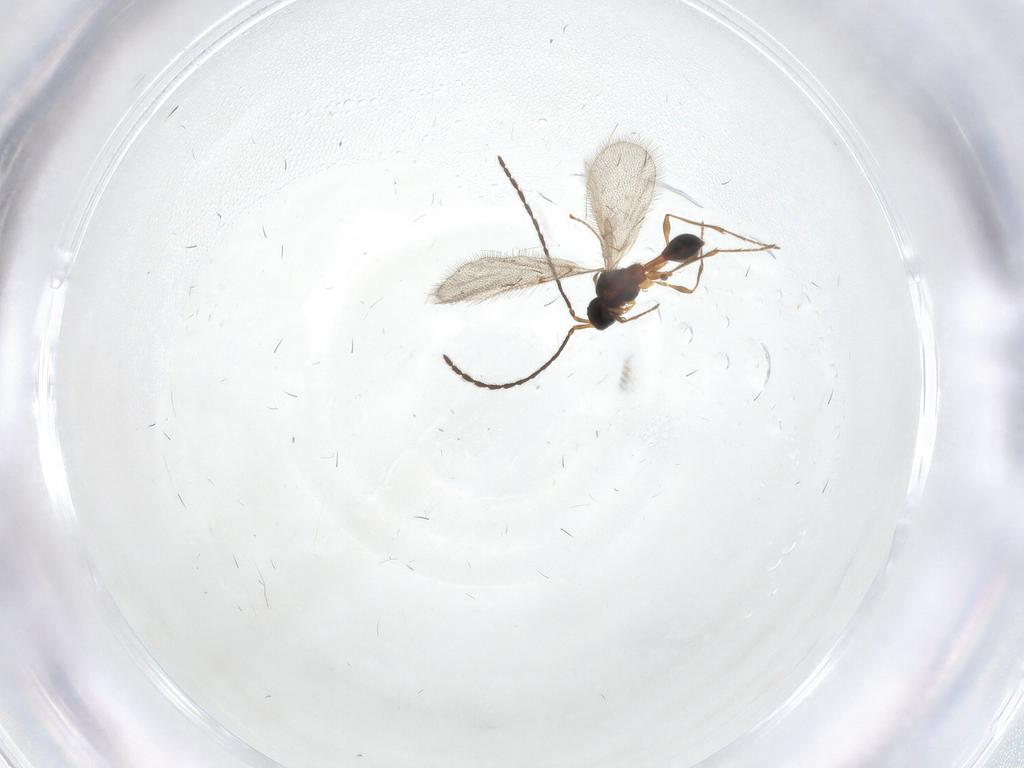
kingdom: Animalia
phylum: Arthropoda
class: Insecta
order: Hymenoptera
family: Diapriidae
